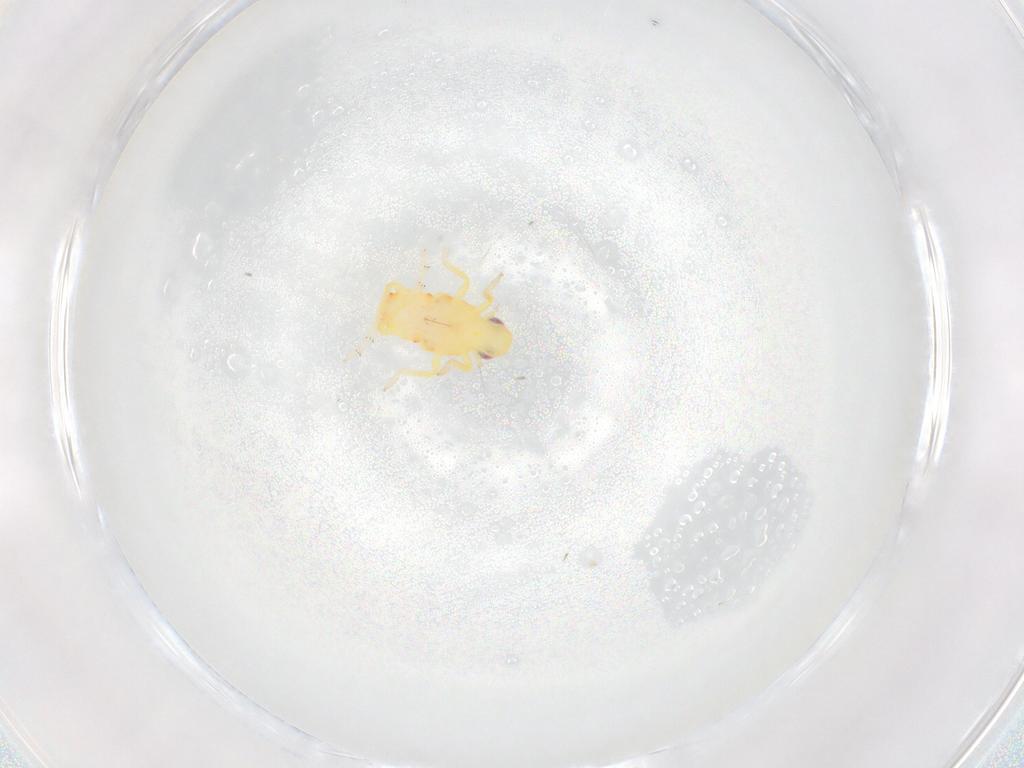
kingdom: Animalia
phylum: Arthropoda
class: Insecta
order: Hemiptera
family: Tropiduchidae
